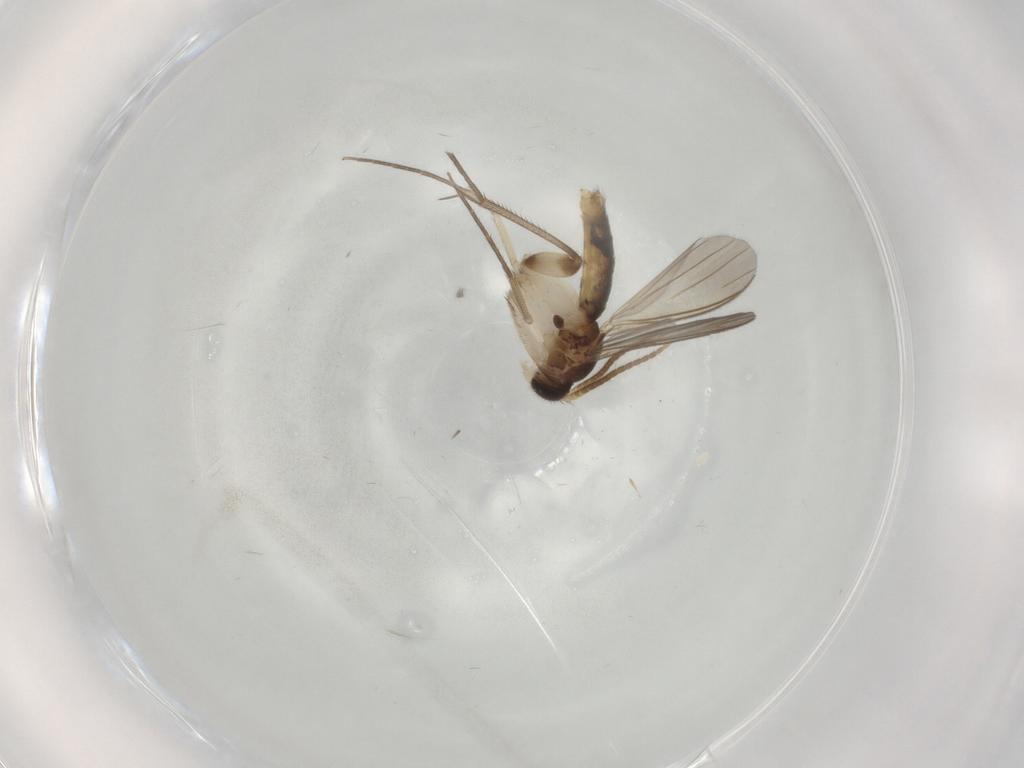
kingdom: Animalia
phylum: Arthropoda
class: Insecta
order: Diptera
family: Mycetophilidae
